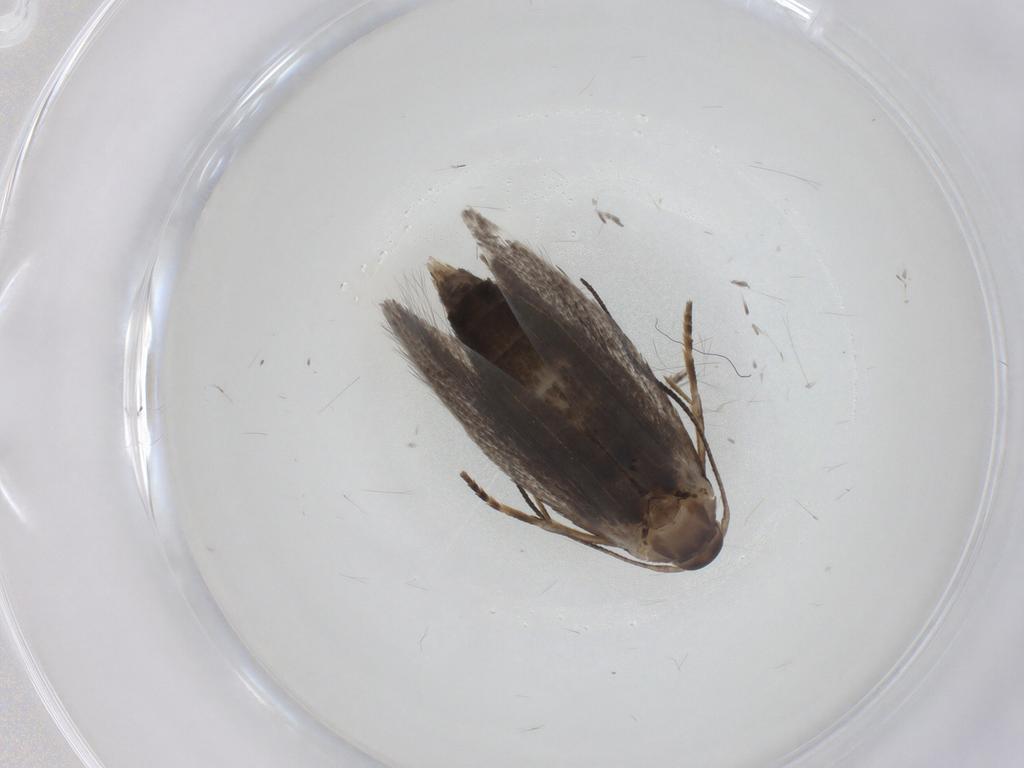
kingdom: Animalia
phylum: Arthropoda
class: Insecta
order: Lepidoptera
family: Elachistidae
